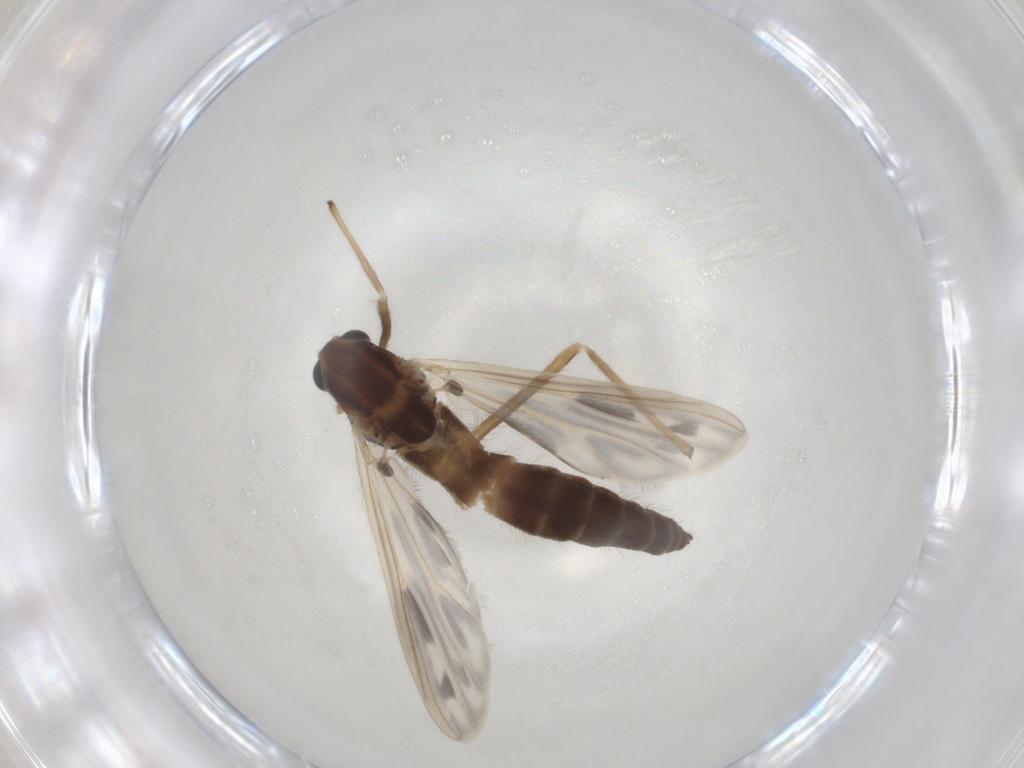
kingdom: Animalia
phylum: Arthropoda
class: Insecta
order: Diptera
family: Chironomidae
